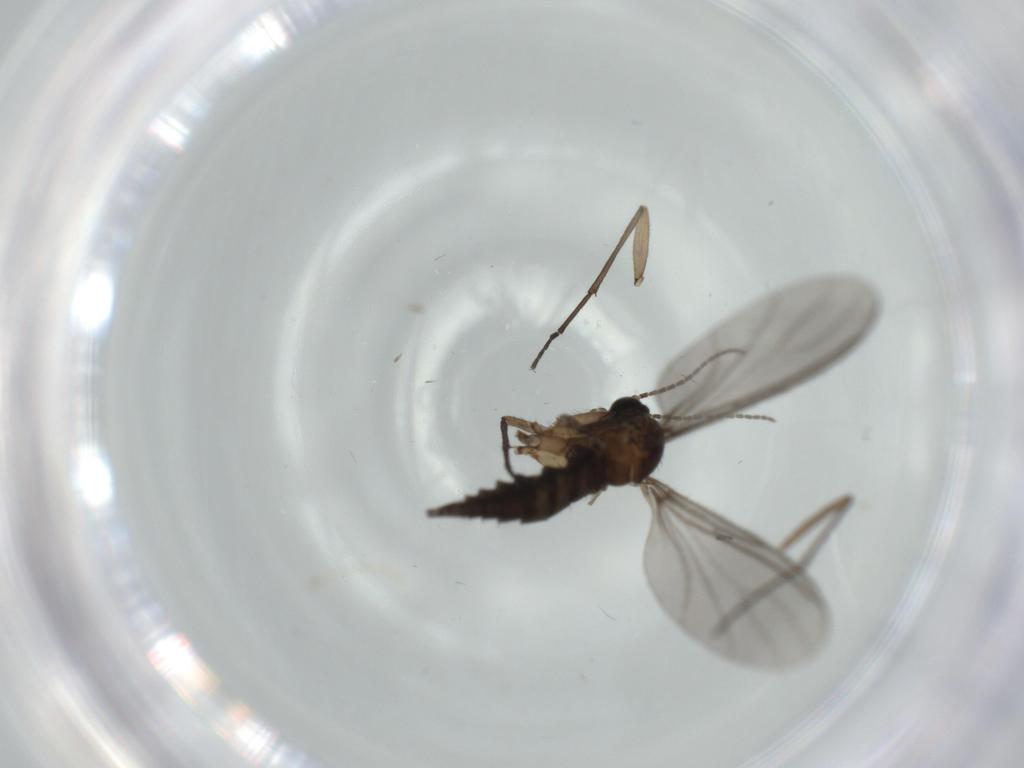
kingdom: Animalia
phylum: Arthropoda
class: Insecta
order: Diptera
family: Sciaridae
